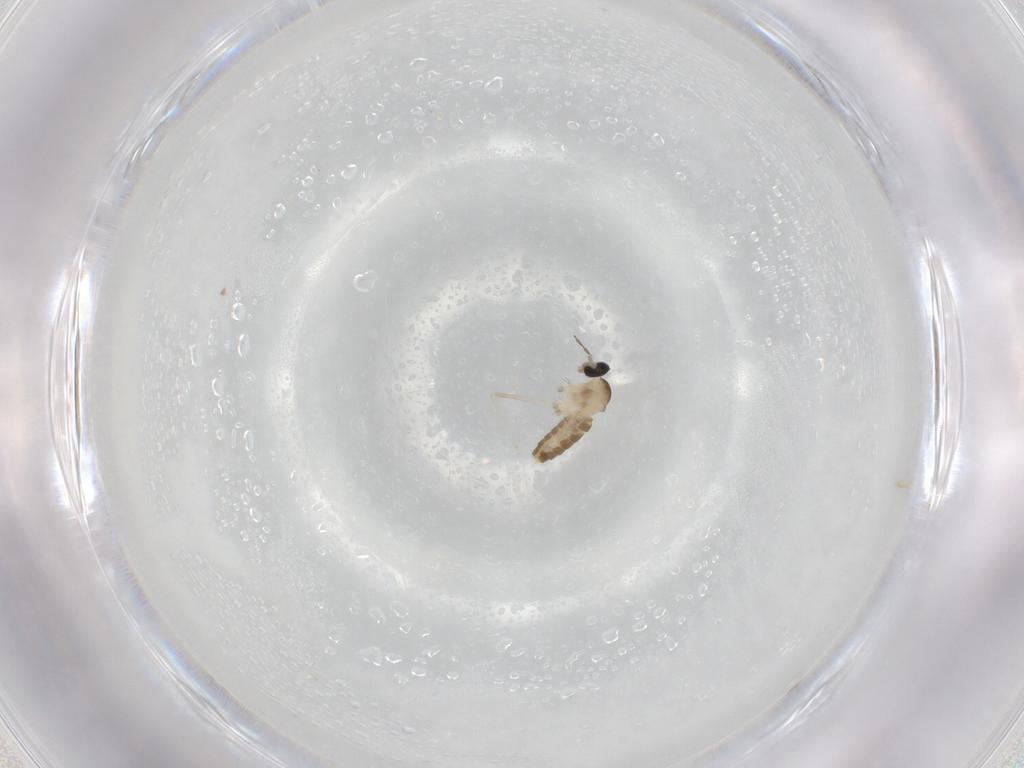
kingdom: Animalia
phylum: Arthropoda
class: Insecta
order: Diptera
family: Cecidomyiidae
